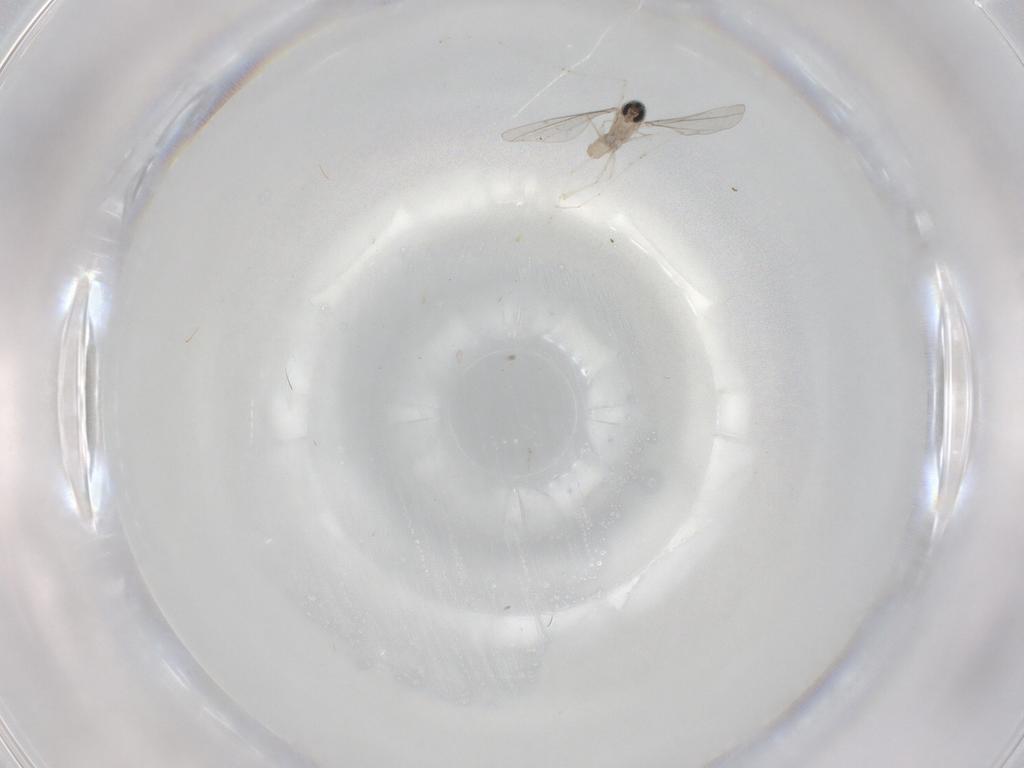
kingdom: Animalia
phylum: Arthropoda
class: Insecta
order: Diptera
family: Cecidomyiidae
